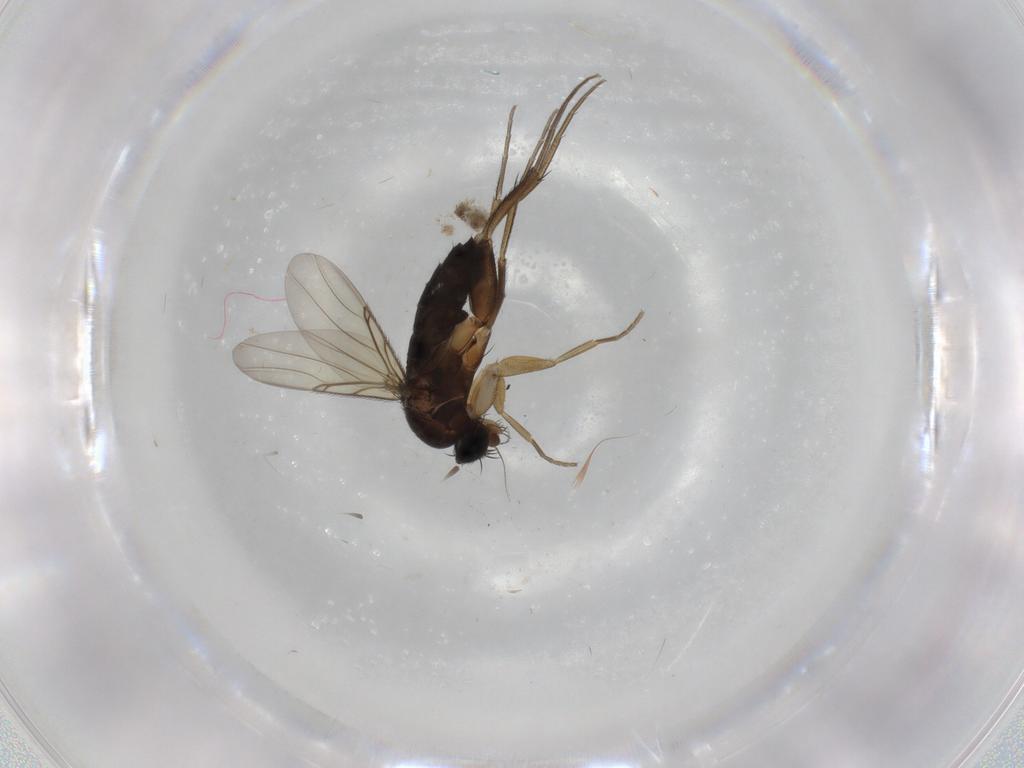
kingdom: Animalia
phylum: Arthropoda
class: Insecta
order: Diptera
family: Phoridae
